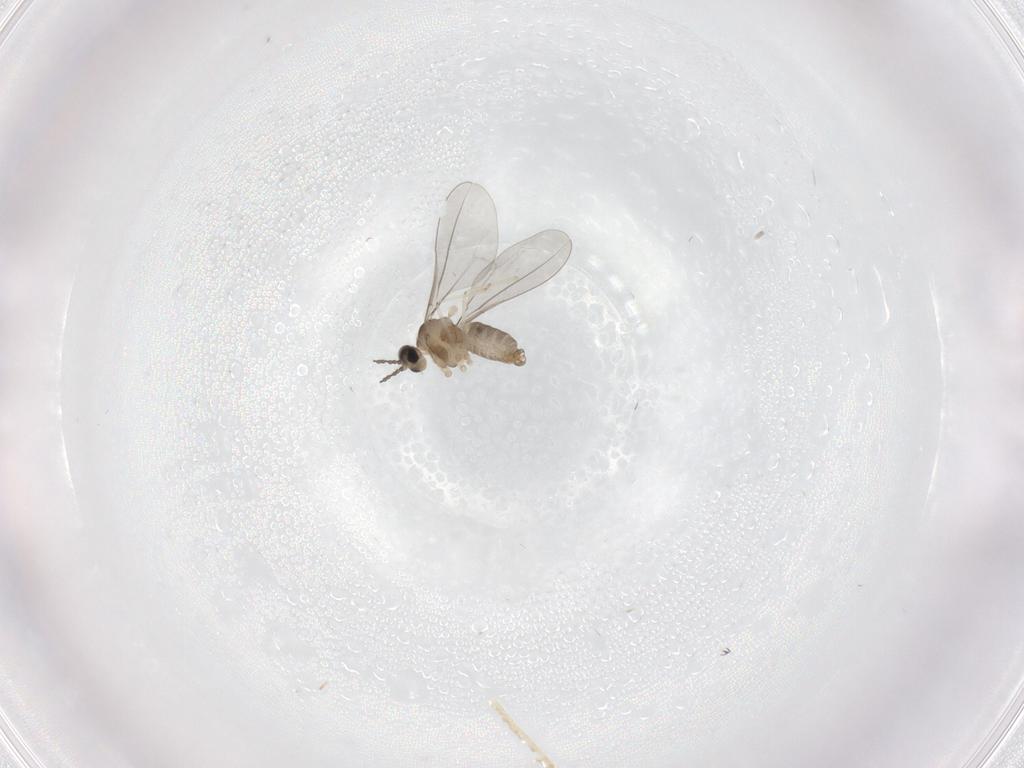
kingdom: Animalia
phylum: Arthropoda
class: Insecta
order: Diptera
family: Cecidomyiidae
